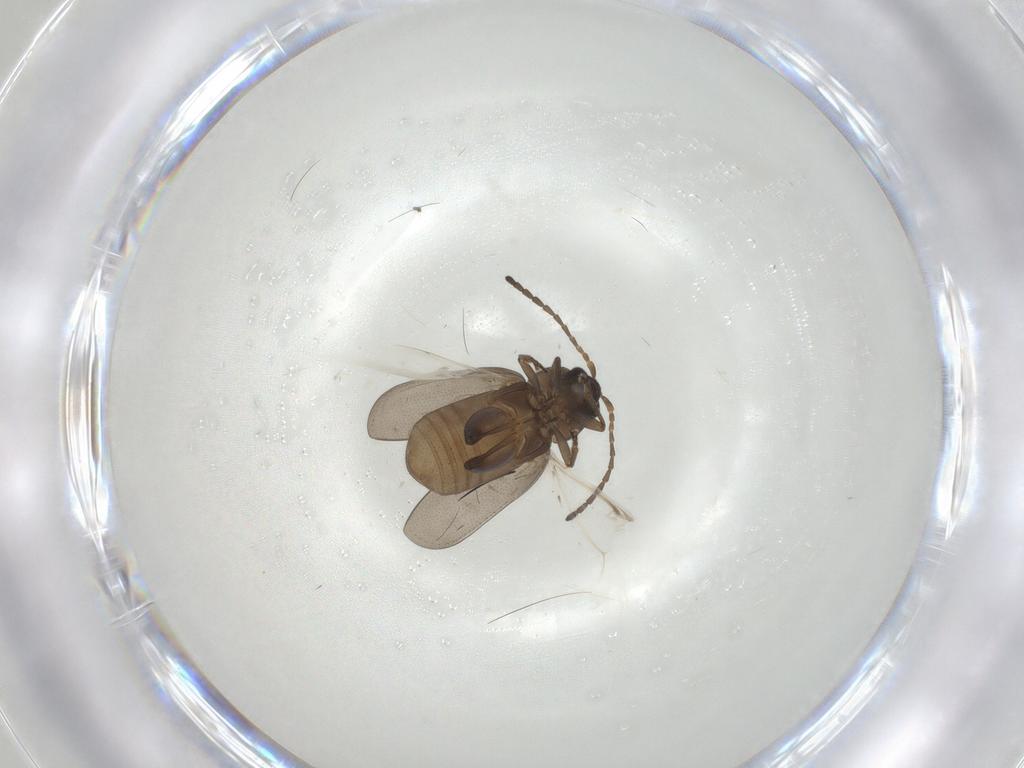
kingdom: Animalia
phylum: Arthropoda
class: Insecta
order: Coleoptera
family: Chrysomelidae
